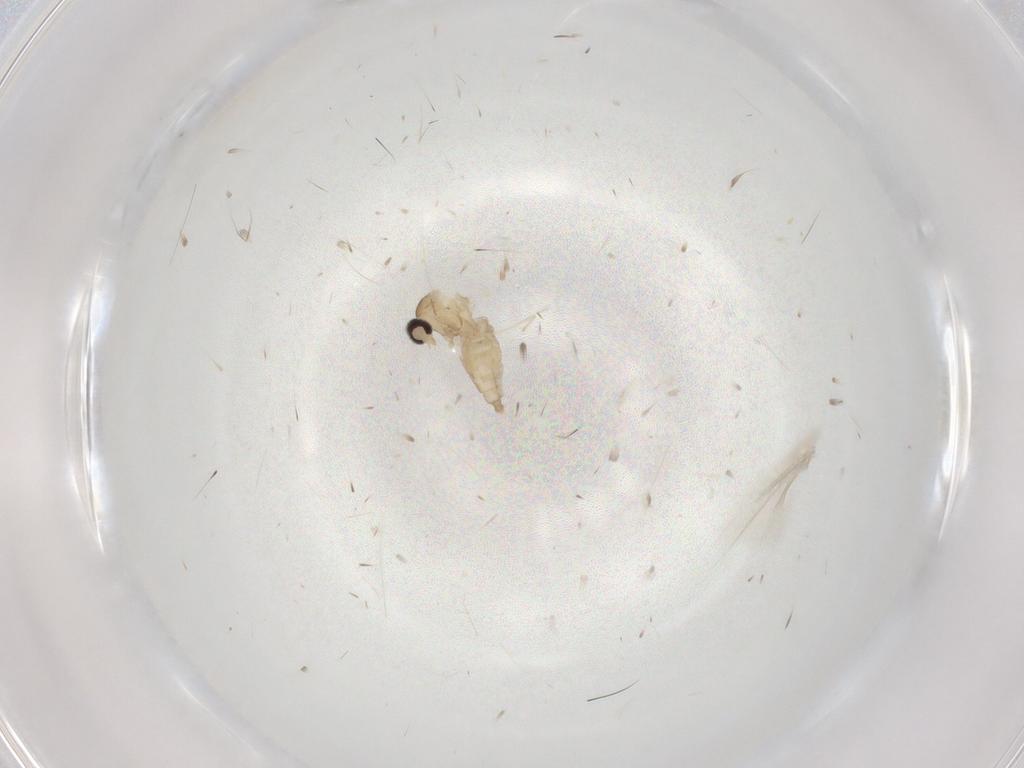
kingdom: Animalia
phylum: Arthropoda
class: Insecta
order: Diptera
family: Cecidomyiidae
